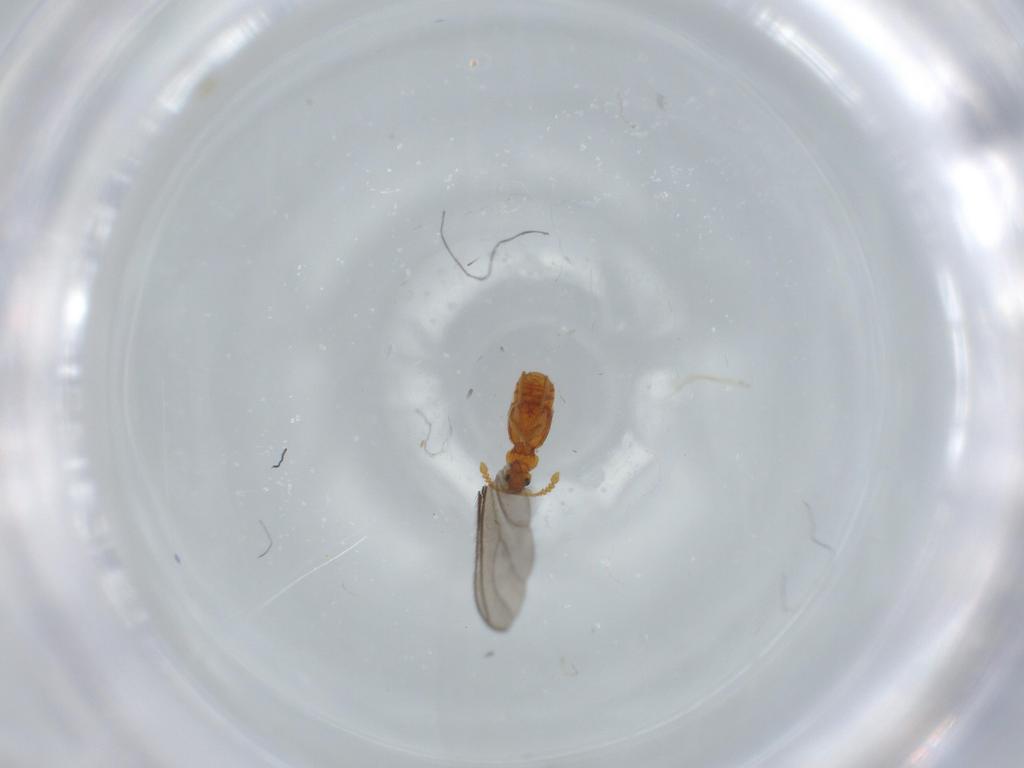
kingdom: Animalia
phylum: Arthropoda
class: Insecta
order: Coleoptera
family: Staphylinidae
